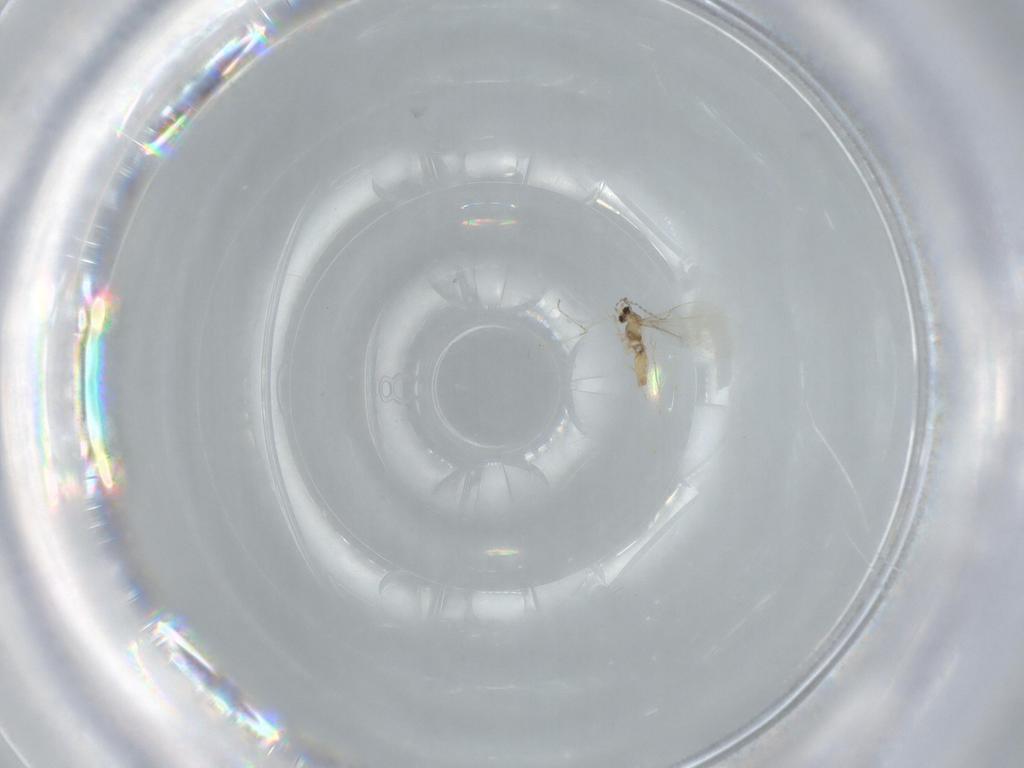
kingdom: Animalia
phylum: Arthropoda
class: Insecta
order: Diptera
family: Cecidomyiidae
